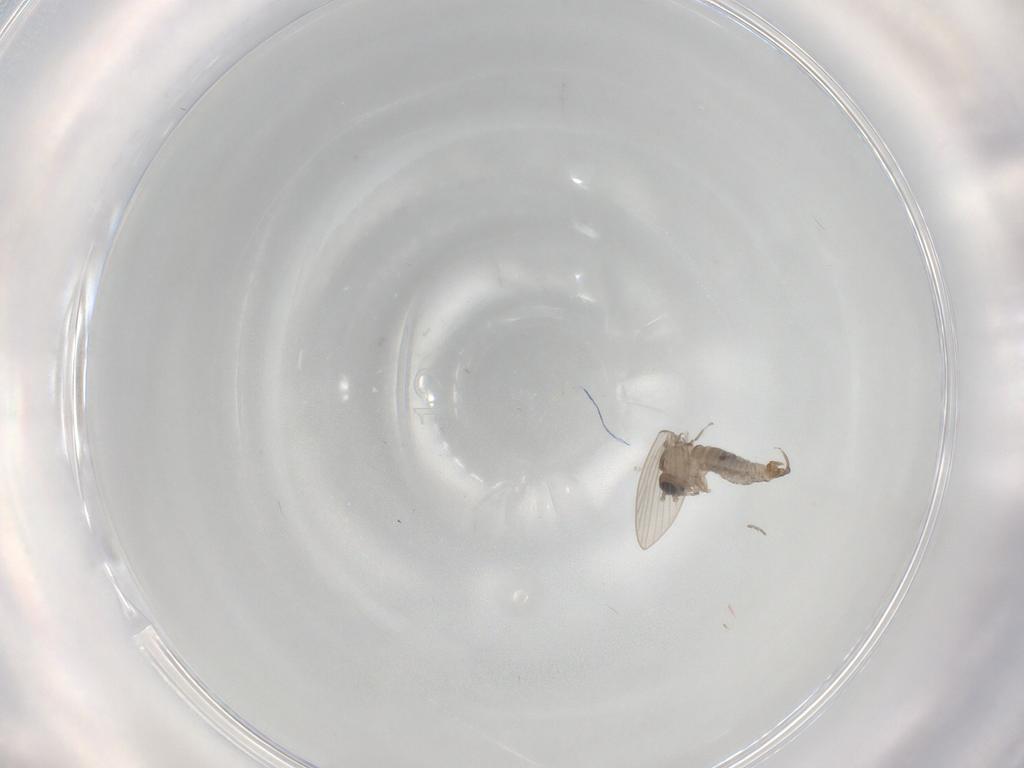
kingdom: Animalia
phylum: Arthropoda
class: Insecta
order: Diptera
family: Psychodidae
